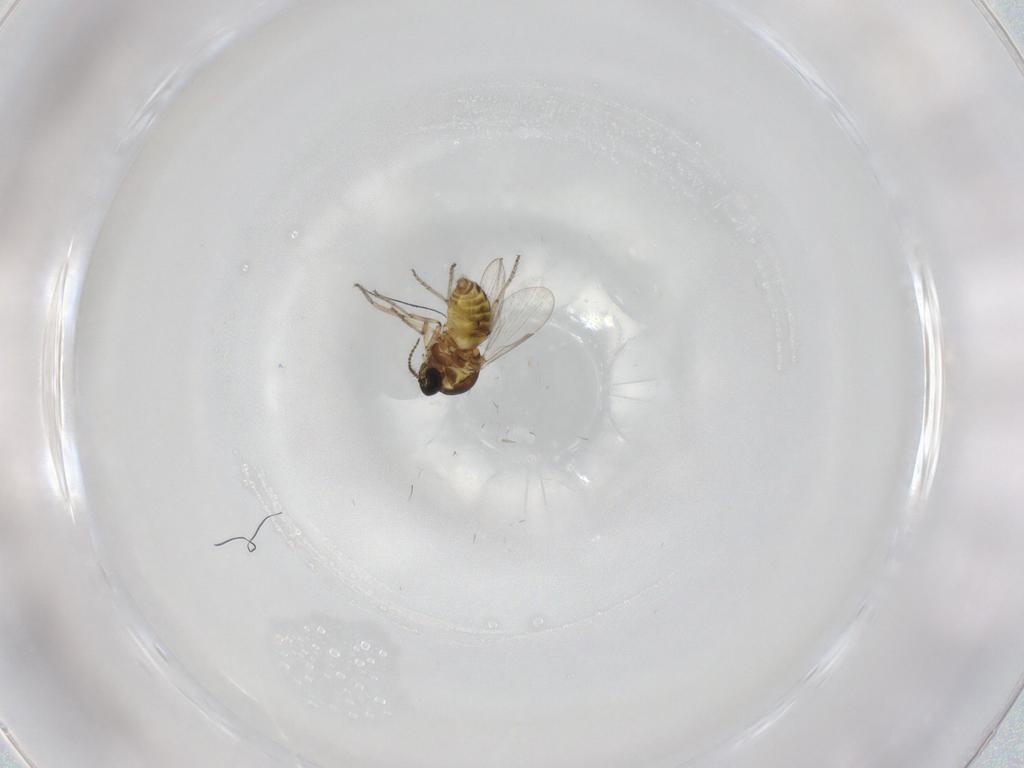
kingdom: Animalia
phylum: Arthropoda
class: Insecta
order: Diptera
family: Ceratopogonidae
